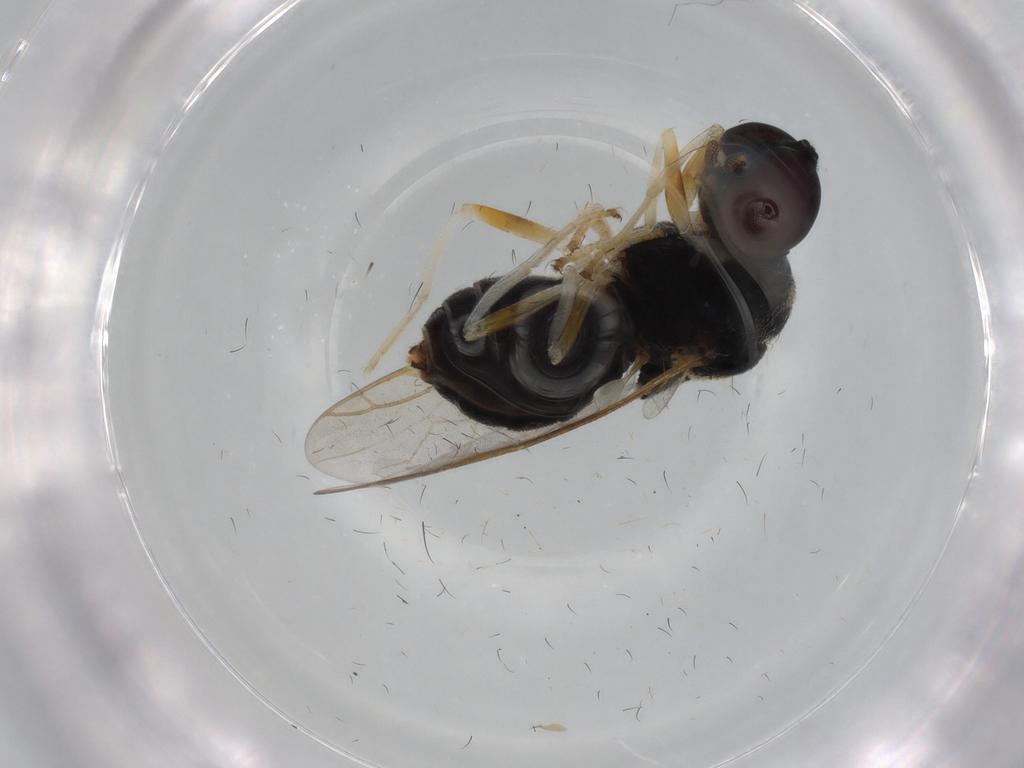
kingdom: Animalia
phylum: Arthropoda
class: Insecta
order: Diptera
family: Stratiomyidae
